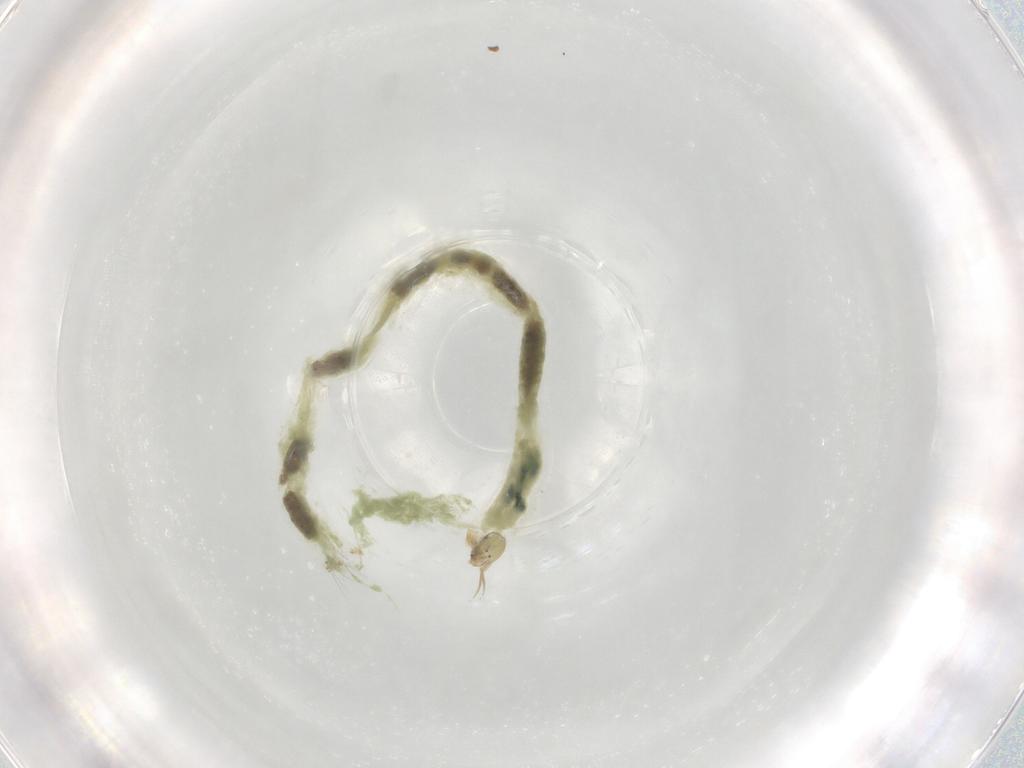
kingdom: Animalia
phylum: Arthropoda
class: Insecta
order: Diptera
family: Chironomidae
